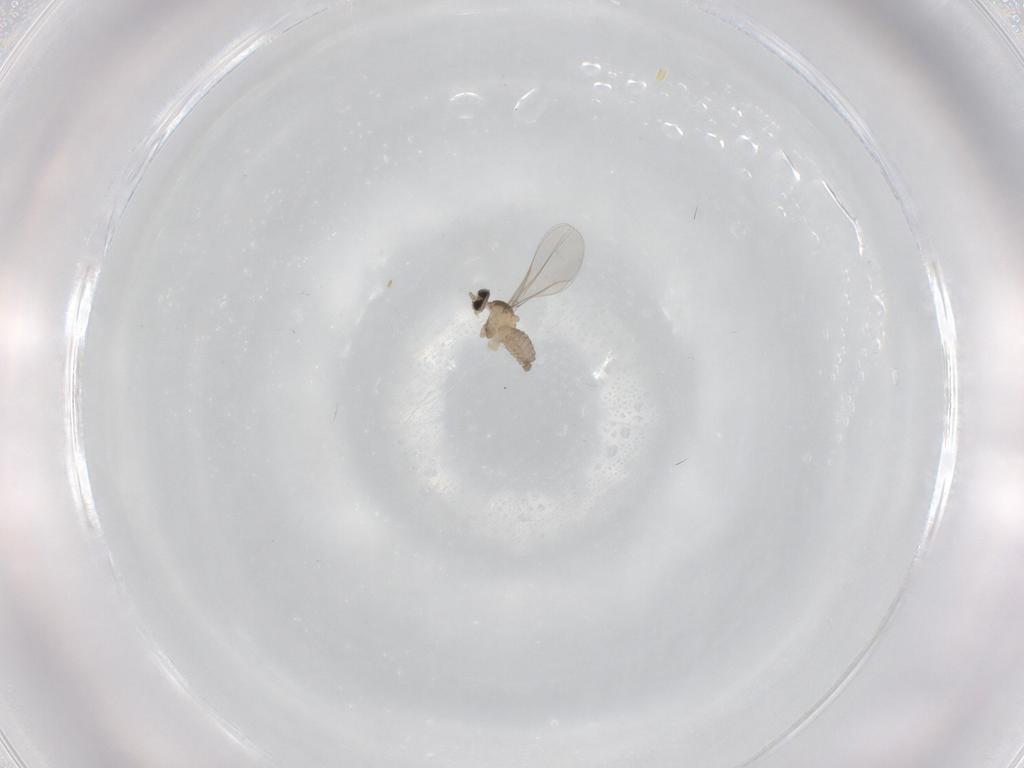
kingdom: Animalia
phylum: Arthropoda
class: Insecta
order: Diptera
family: Cecidomyiidae
